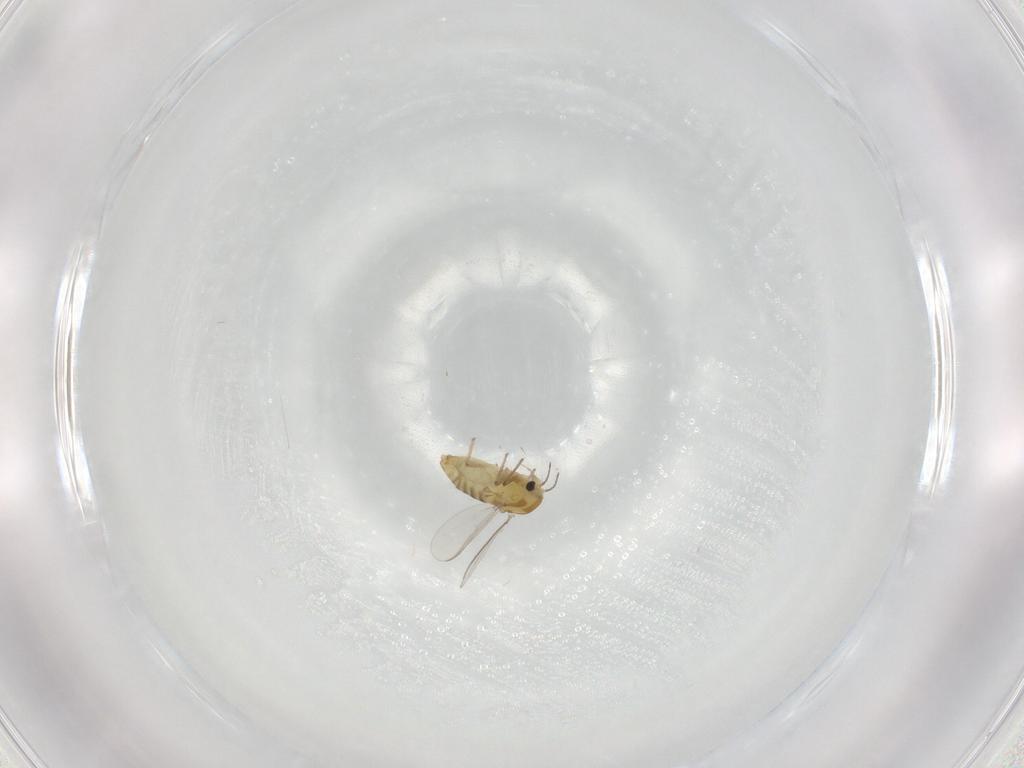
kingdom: Animalia
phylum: Arthropoda
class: Insecta
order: Diptera
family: Chironomidae
